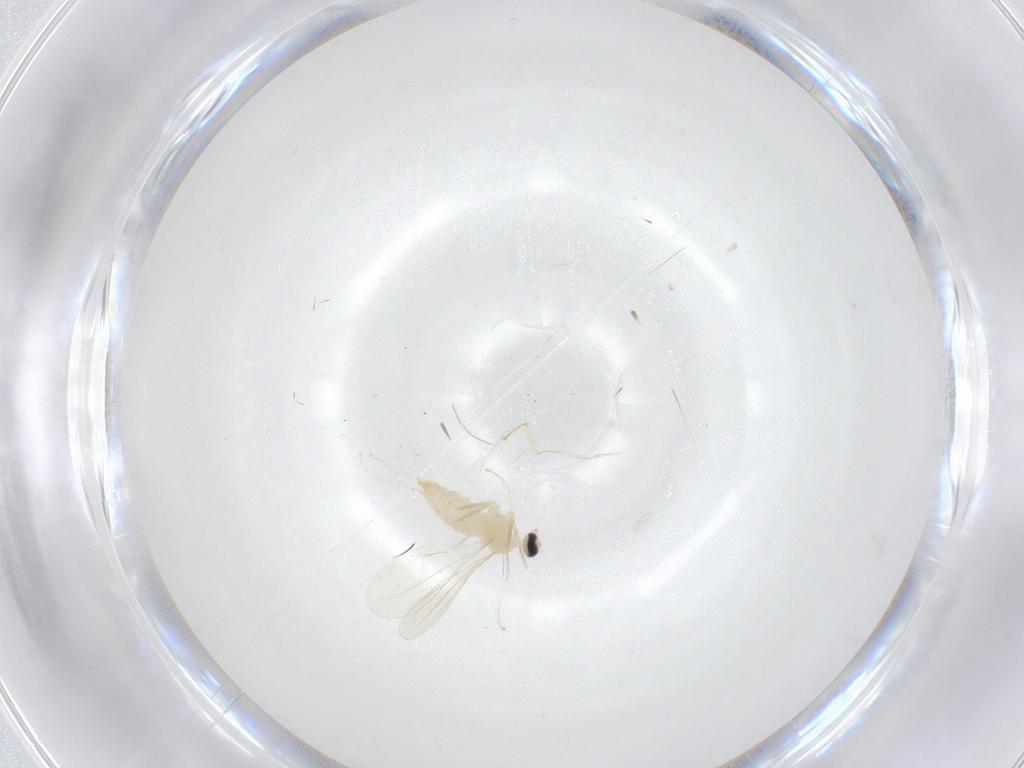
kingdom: Animalia
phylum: Arthropoda
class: Insecta
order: Diptera
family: Cecidomyiidae
